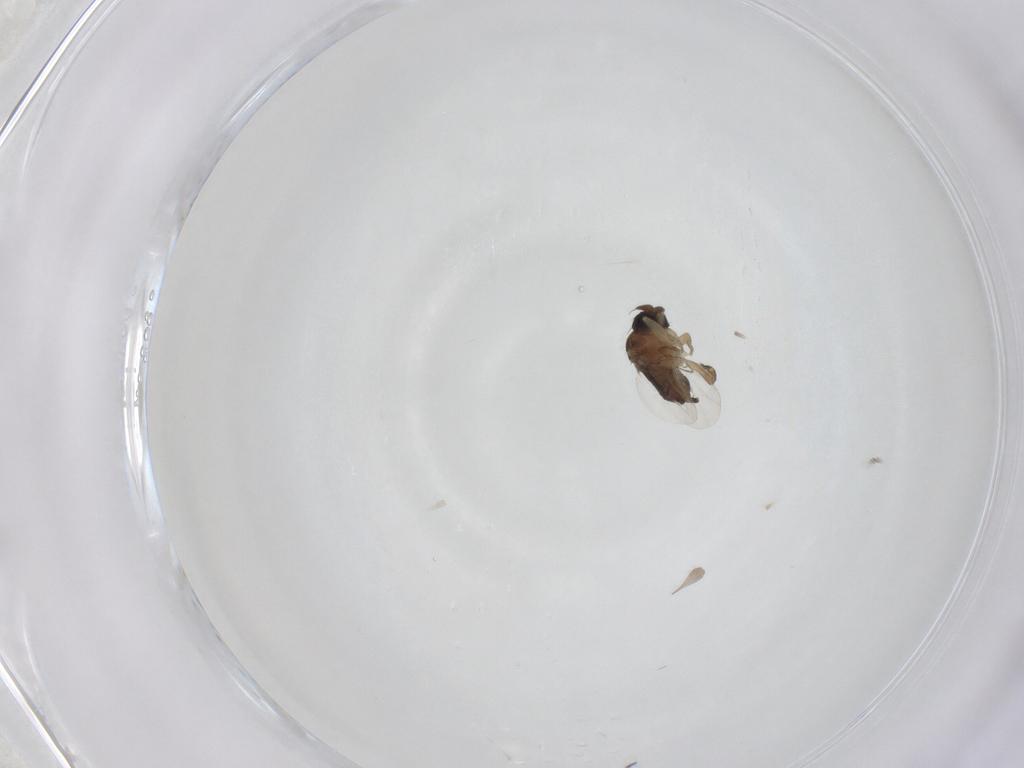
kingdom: Animalia
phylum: Arthropoda
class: Insecta
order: Diptera
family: Phoridae
